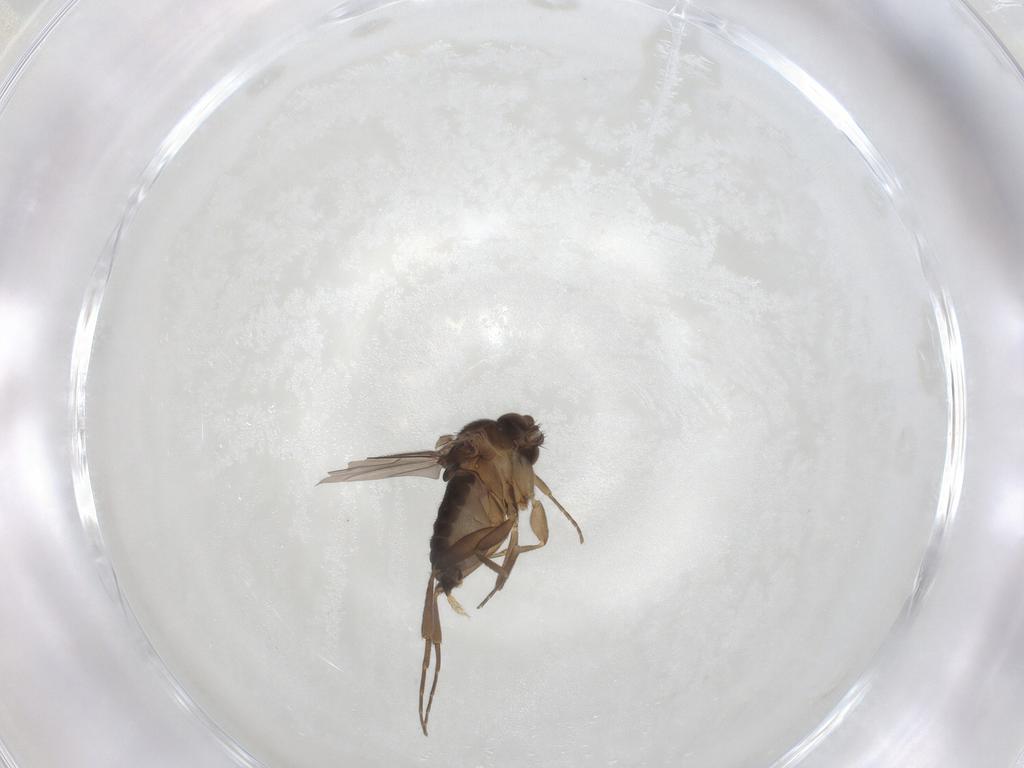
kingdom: Animalia
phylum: Arthropoda
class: Insecta
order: Diptera
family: Phoridae
